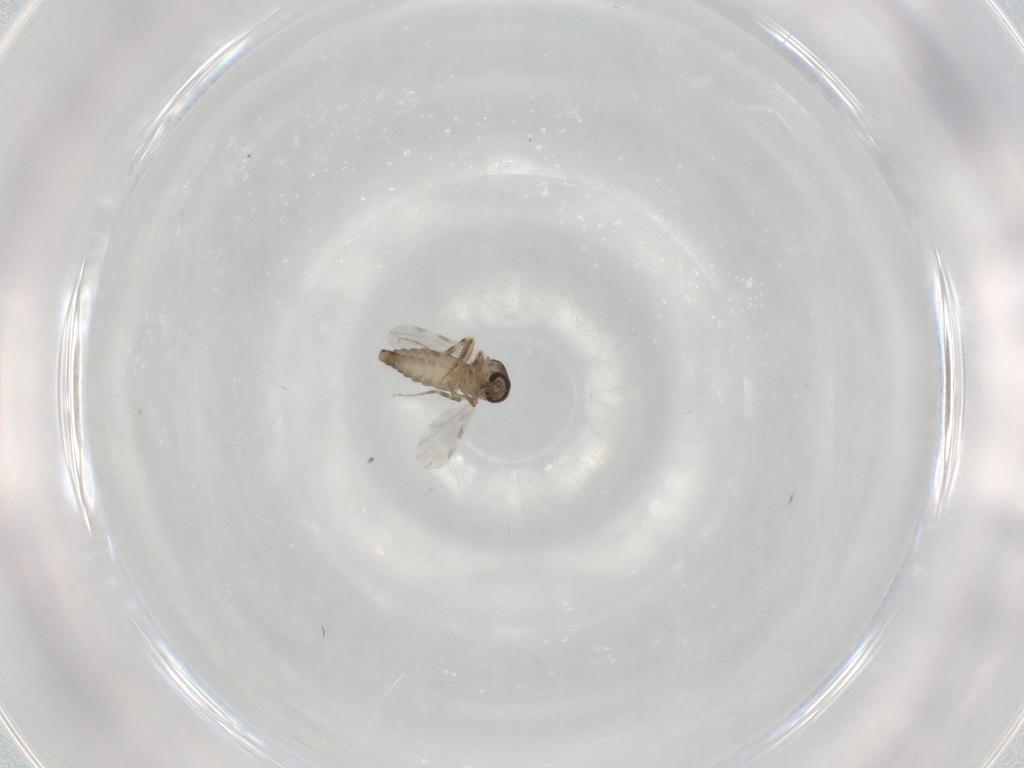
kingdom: Animalia
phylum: Arthropoda
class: Insecta
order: Diptera
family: Ceratopogonidae
